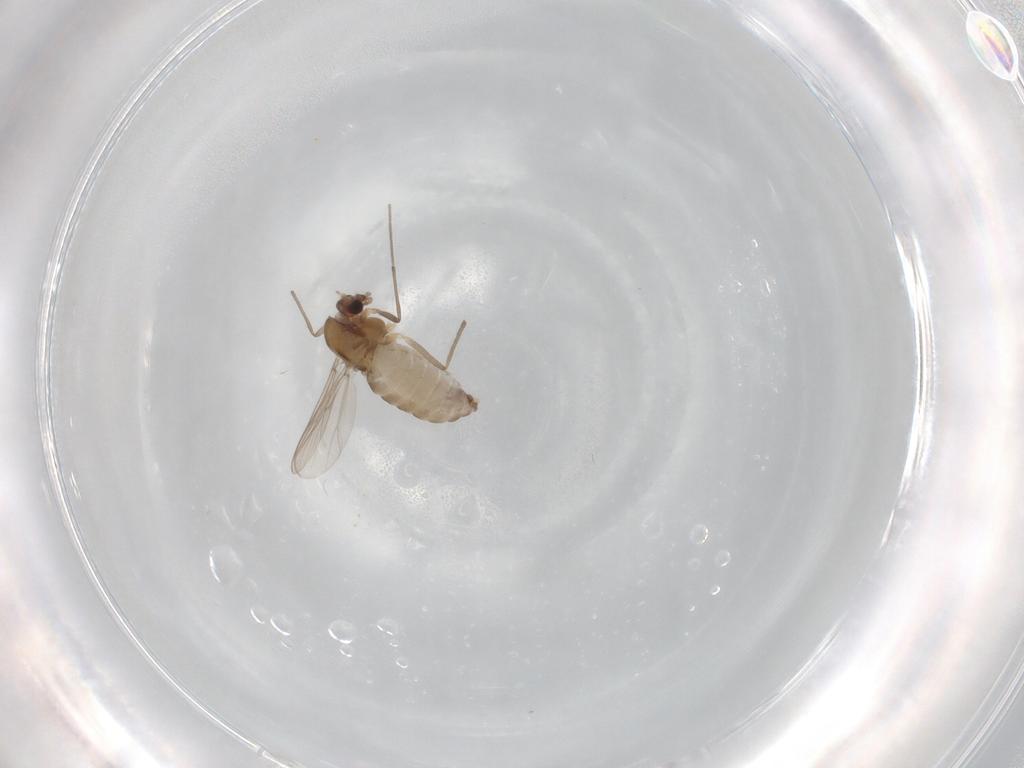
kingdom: Animalia
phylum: Arthropoda
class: Insecta
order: Diptera
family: Chironomidae
